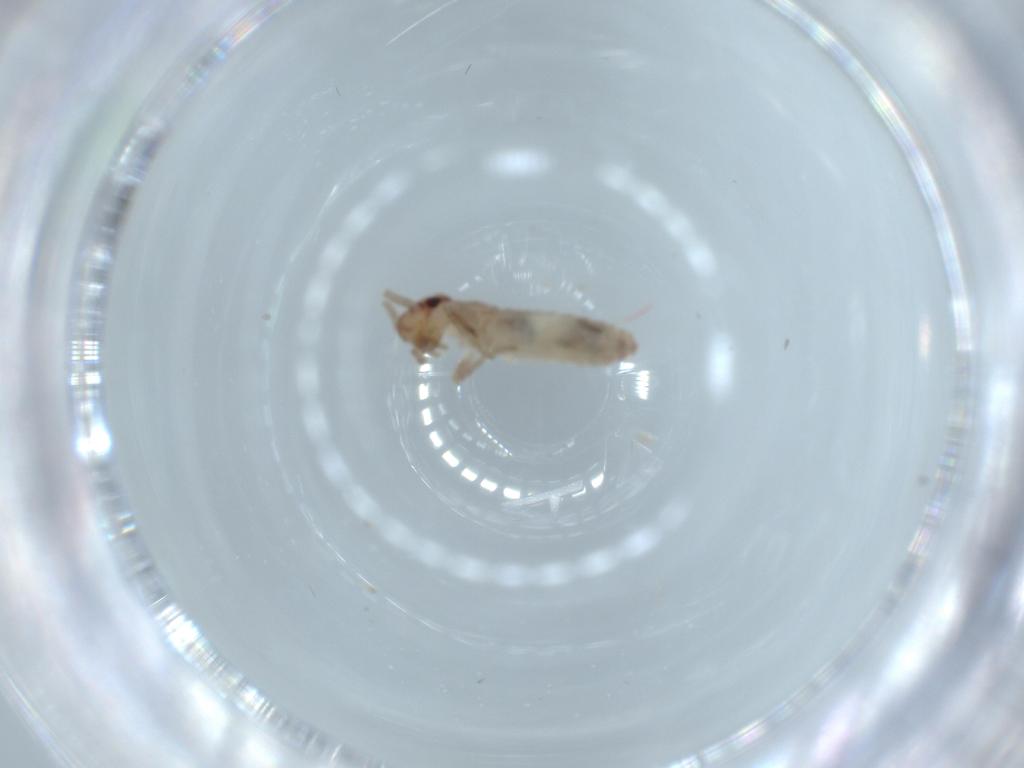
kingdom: Animalia
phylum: Arthropoda
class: Insecta
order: Orthoptera
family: Mogoplistidae
